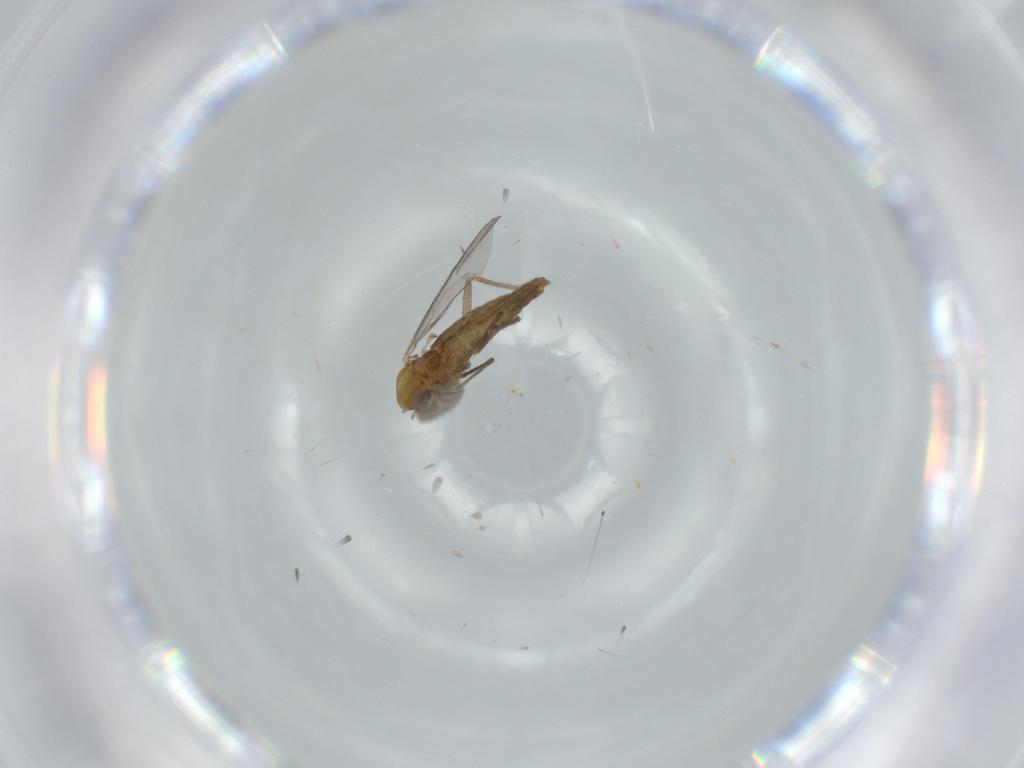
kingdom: Animalia
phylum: Arthropoda
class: Insecta
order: Diptera
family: Chironomidae
